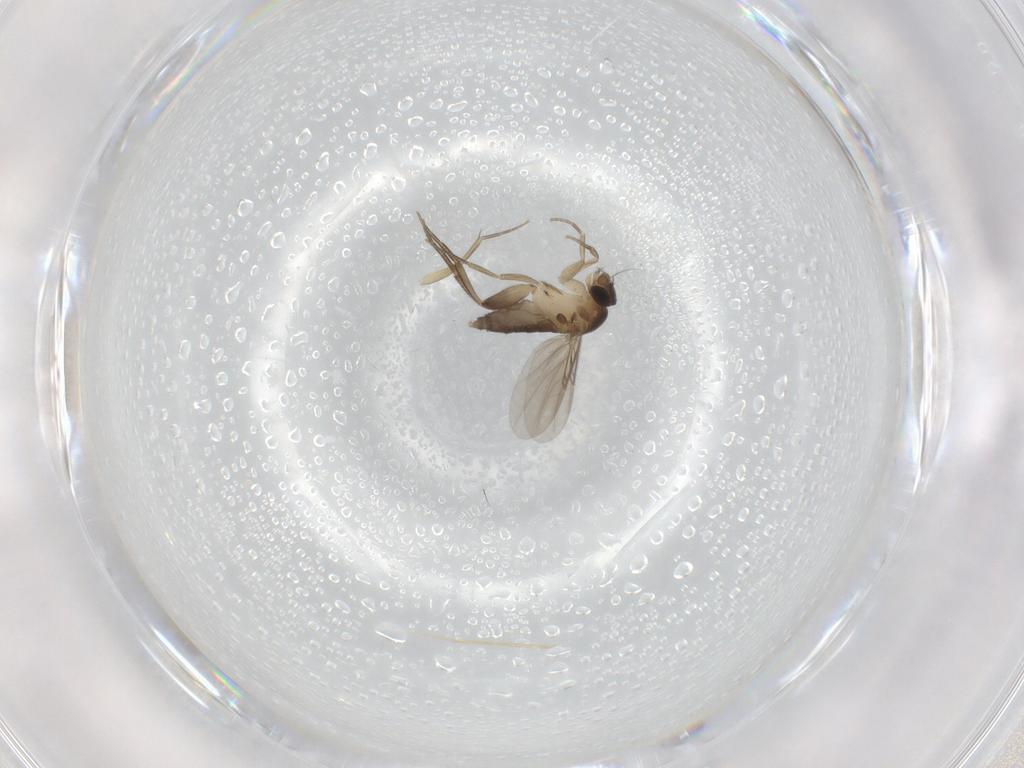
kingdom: Animalia
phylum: Arthropoda
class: Insecta
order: Diptera
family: Phoridae
